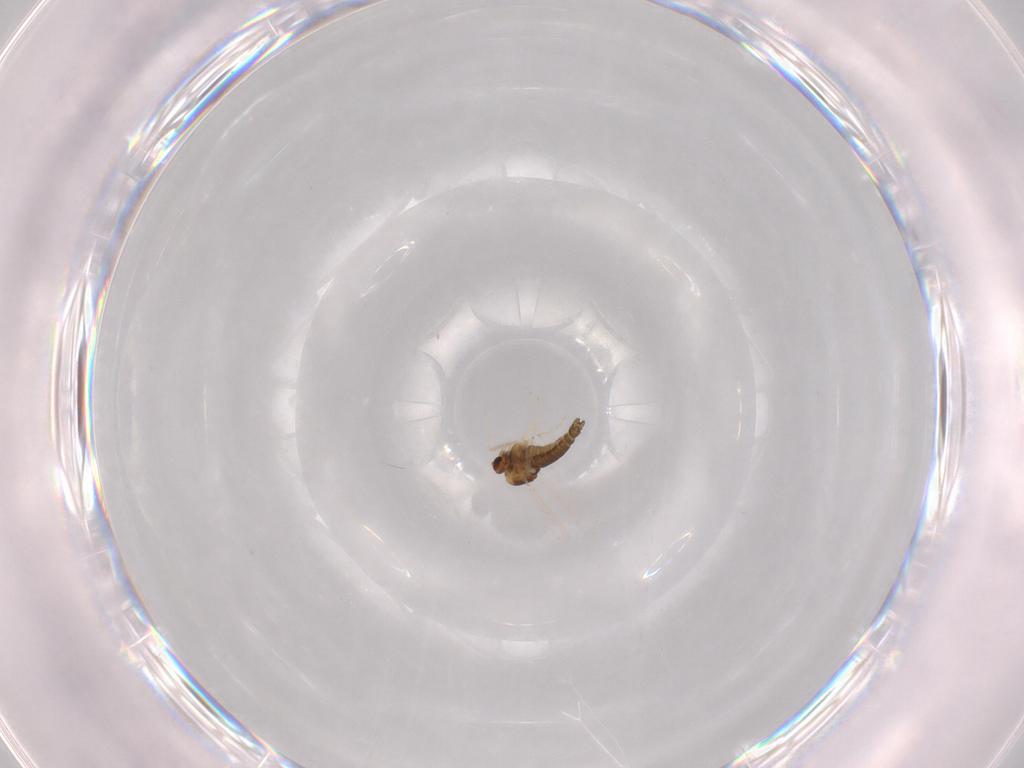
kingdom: Animalia
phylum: Arthropoda
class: Insecta
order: Diptera
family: Chironomidae
